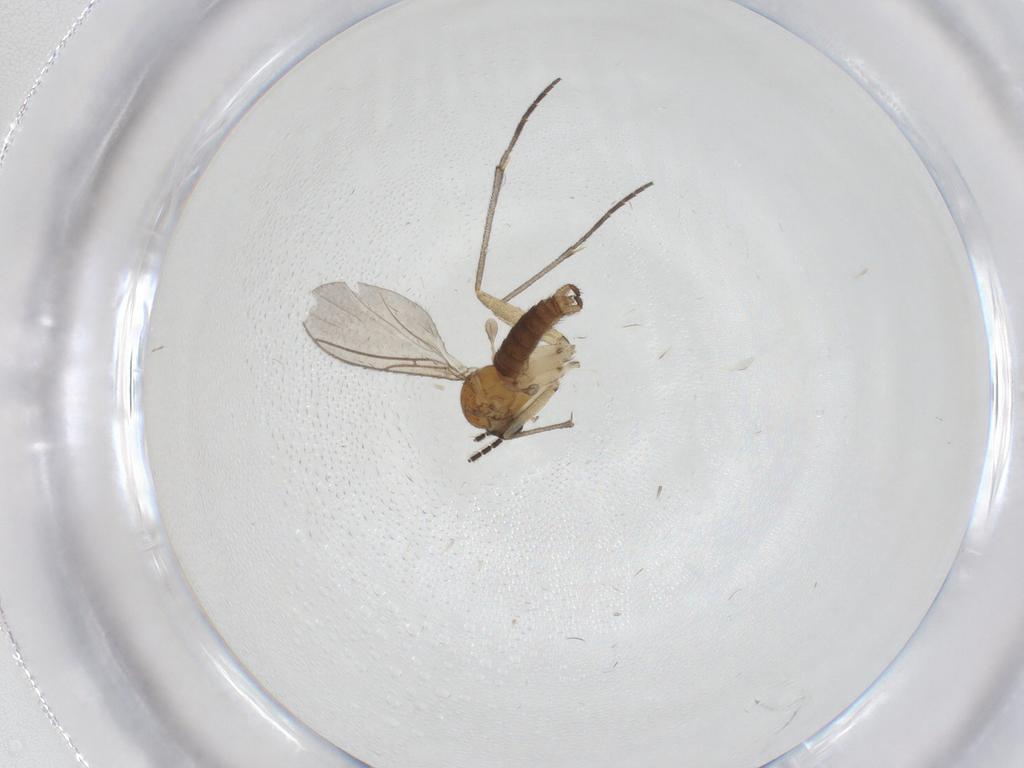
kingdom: Animalia
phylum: Arthropoda
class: Insecta
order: Diptera
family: Sciaridae
